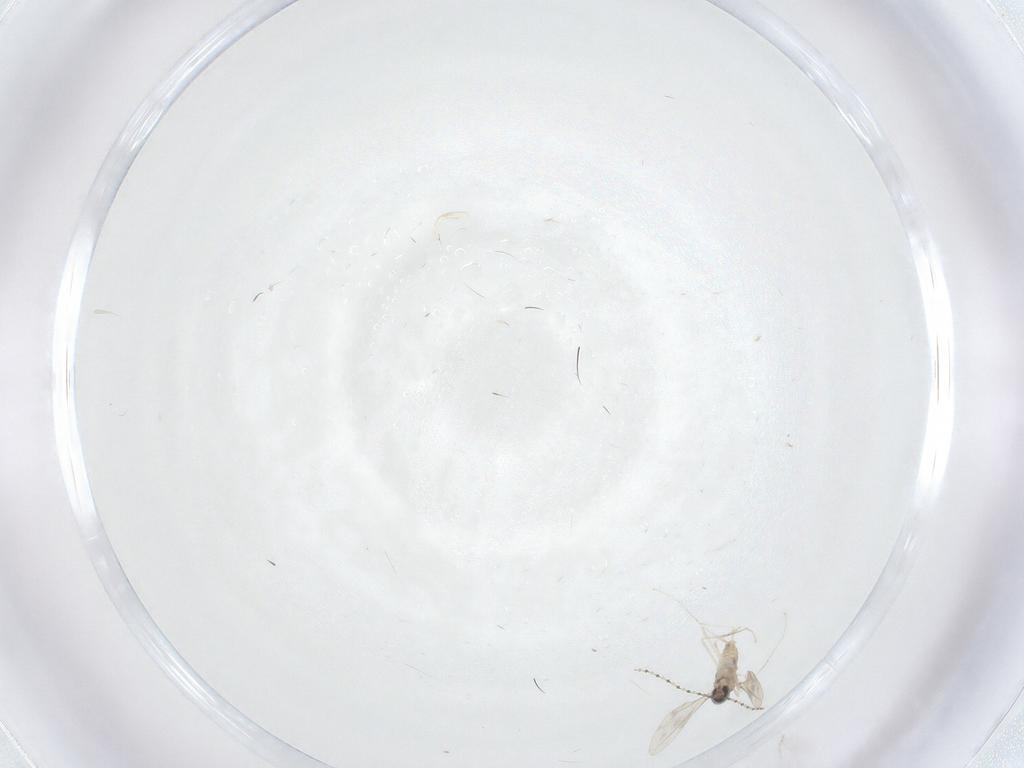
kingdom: Animalia
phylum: Arthropoda
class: Insecta
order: Diptera
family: Cecidomyiidae
